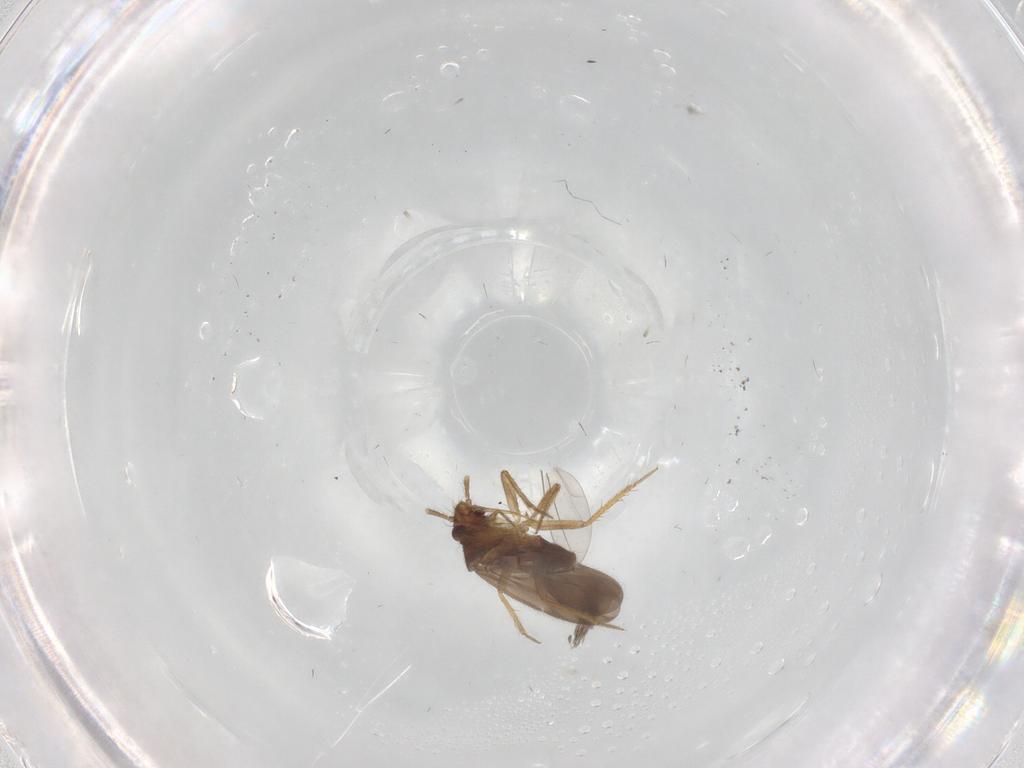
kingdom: Animalia
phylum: Arthropoda
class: Insecta
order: Hemiptera
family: Ceratocombidae
